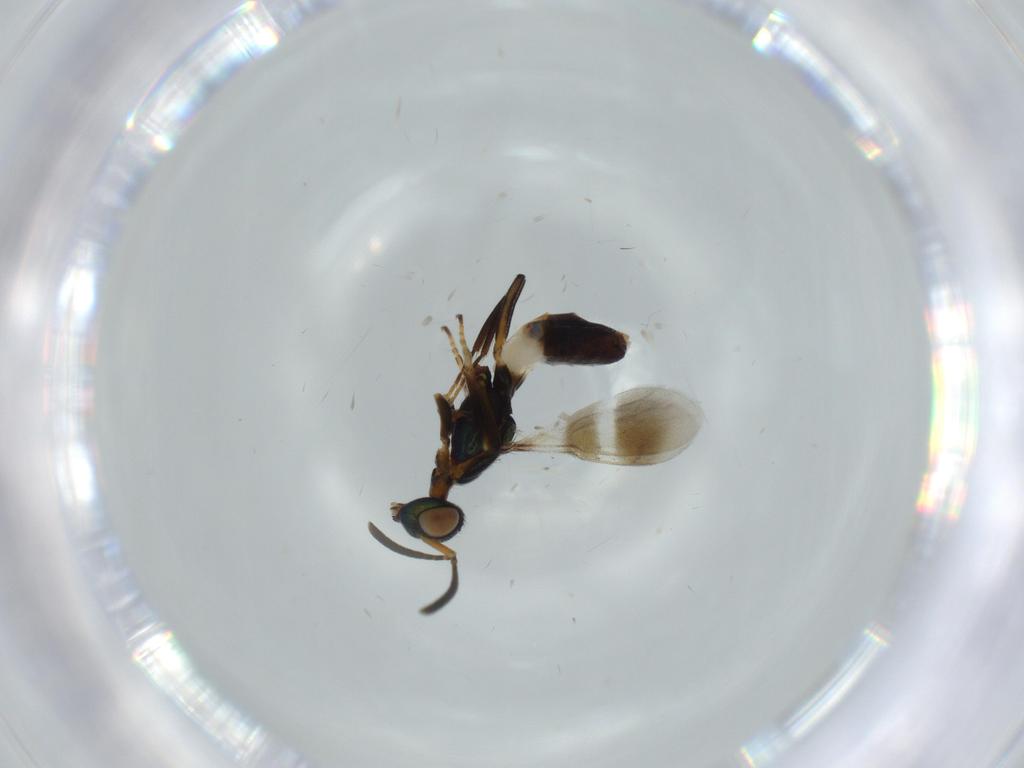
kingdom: Animalia
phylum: Arthropoda
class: Insecta
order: Hymenoptera
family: Eupelmidae
